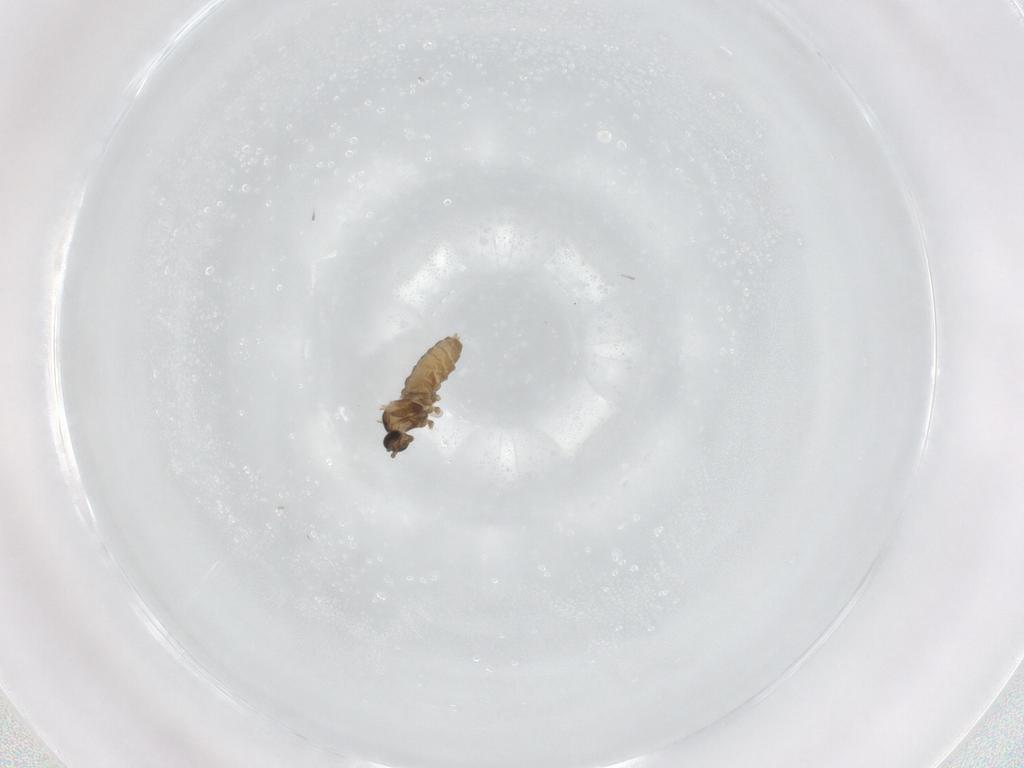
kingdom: Animalia
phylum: Arthropoda
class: Insecta
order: Diptera
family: Cecidomyiidae
